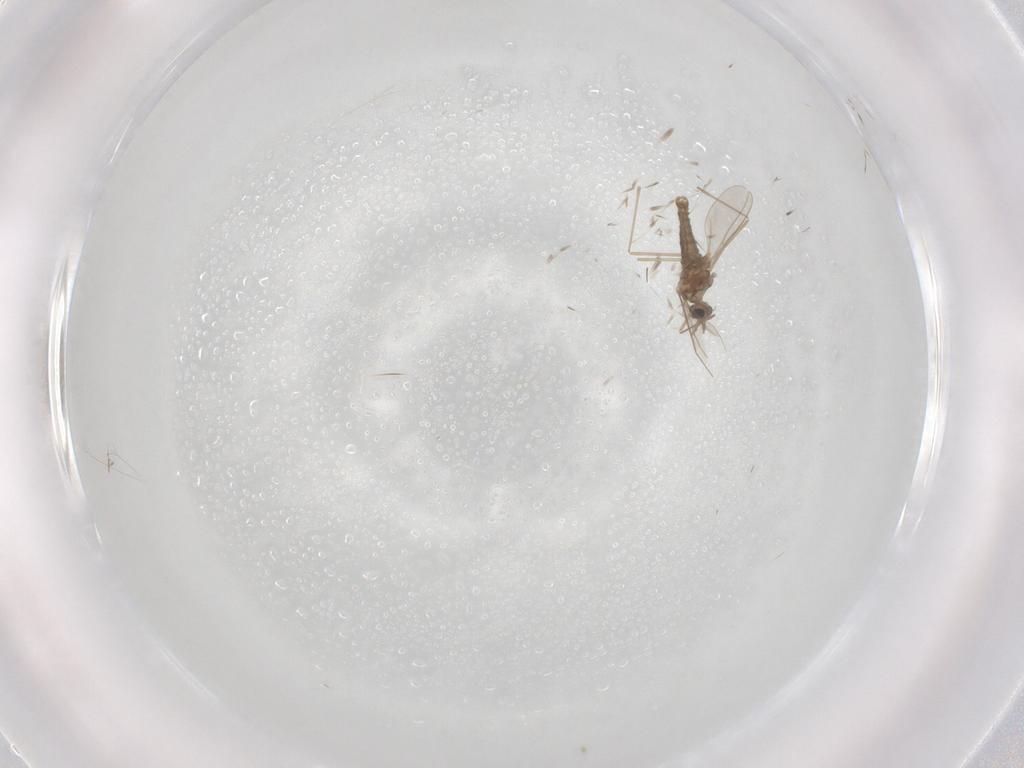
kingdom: Animalia
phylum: Arthropoda
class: Insecta
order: Diptera
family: Cecidomyiidae
